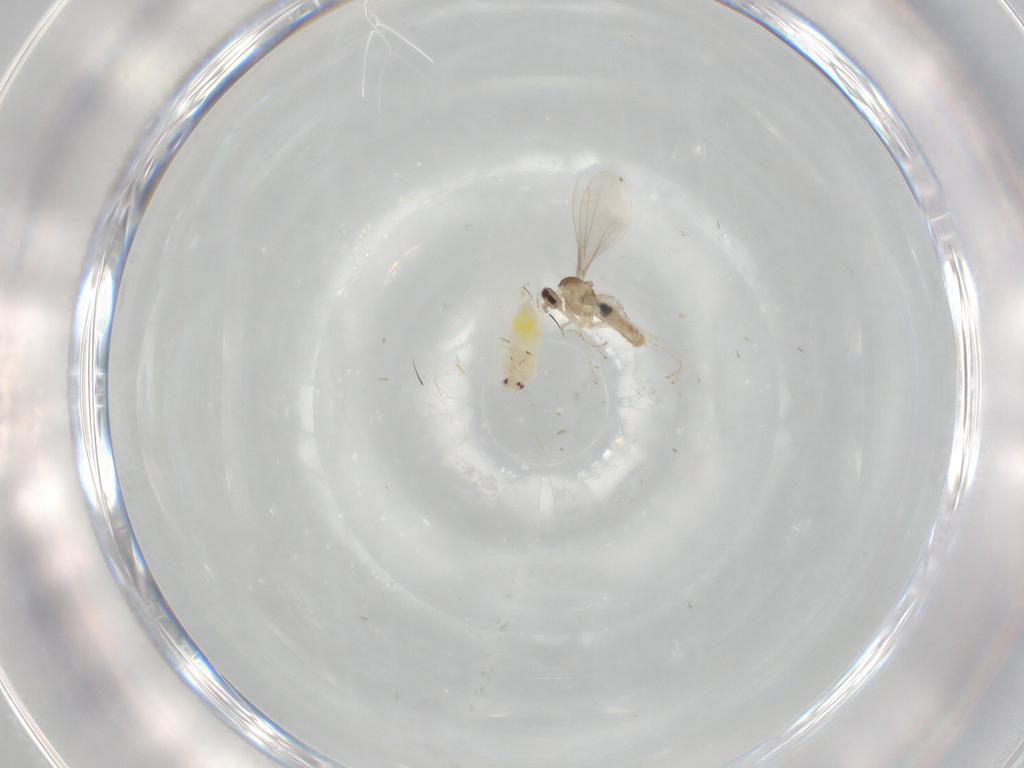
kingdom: Animalia
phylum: Arthropoda
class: Insecta
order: Diptera
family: Cecidomyiidae
